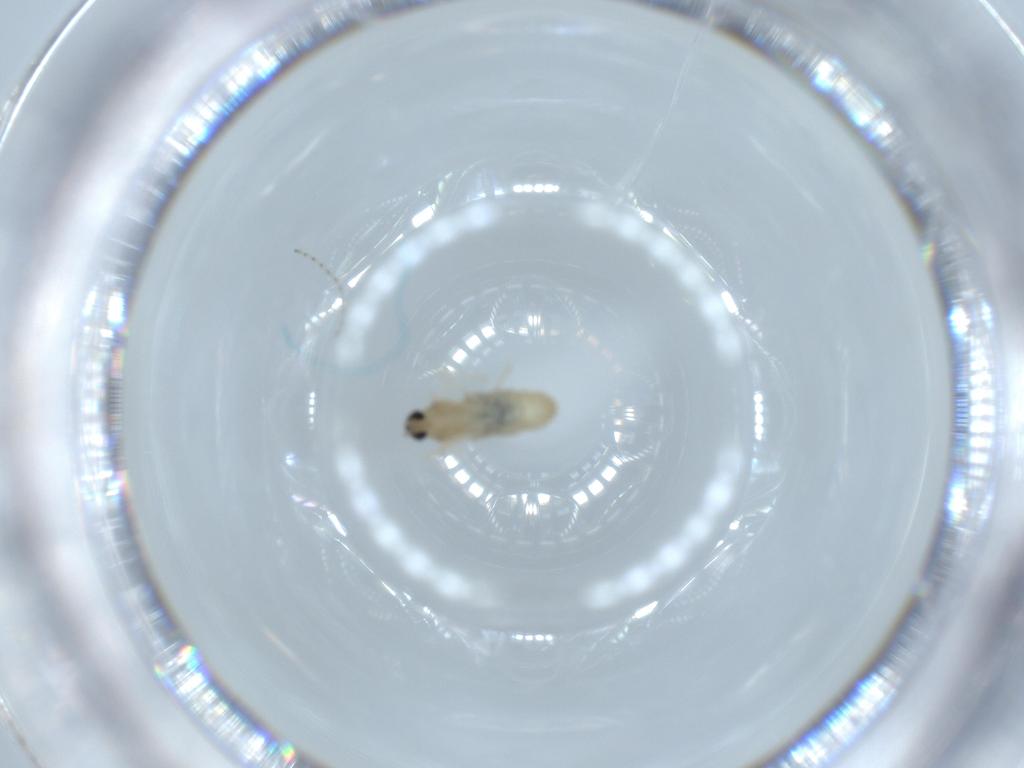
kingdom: Animalia
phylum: Arthropoda
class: Insecta
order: Diptera
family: Cecidomyiidae
